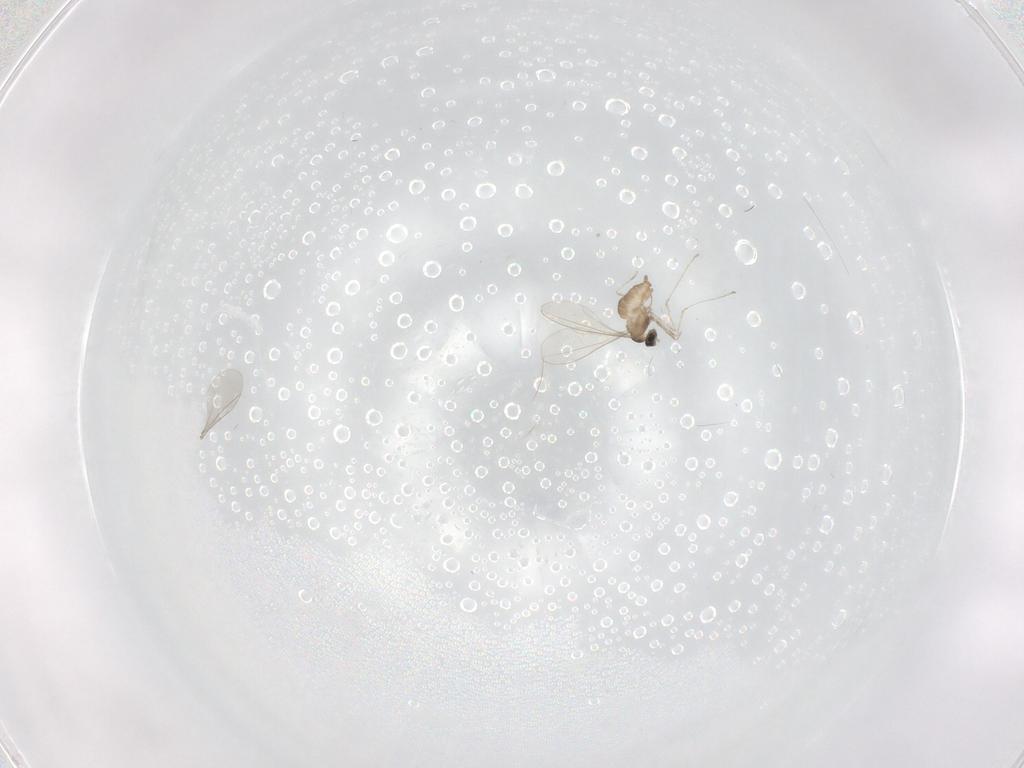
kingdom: Animalia
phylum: Arthropoda
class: Insecta
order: Diptera
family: Cecidomyiidae
